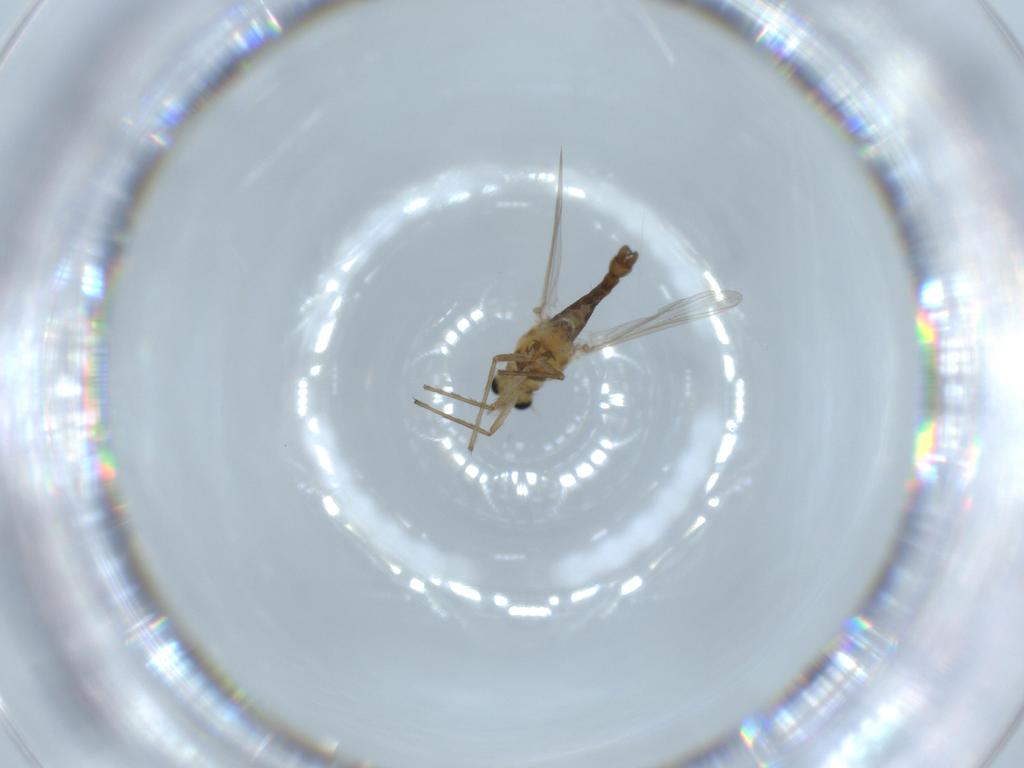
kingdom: Animalia
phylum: Arthropoda
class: Insecta
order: Diptera
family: Chironomidae
